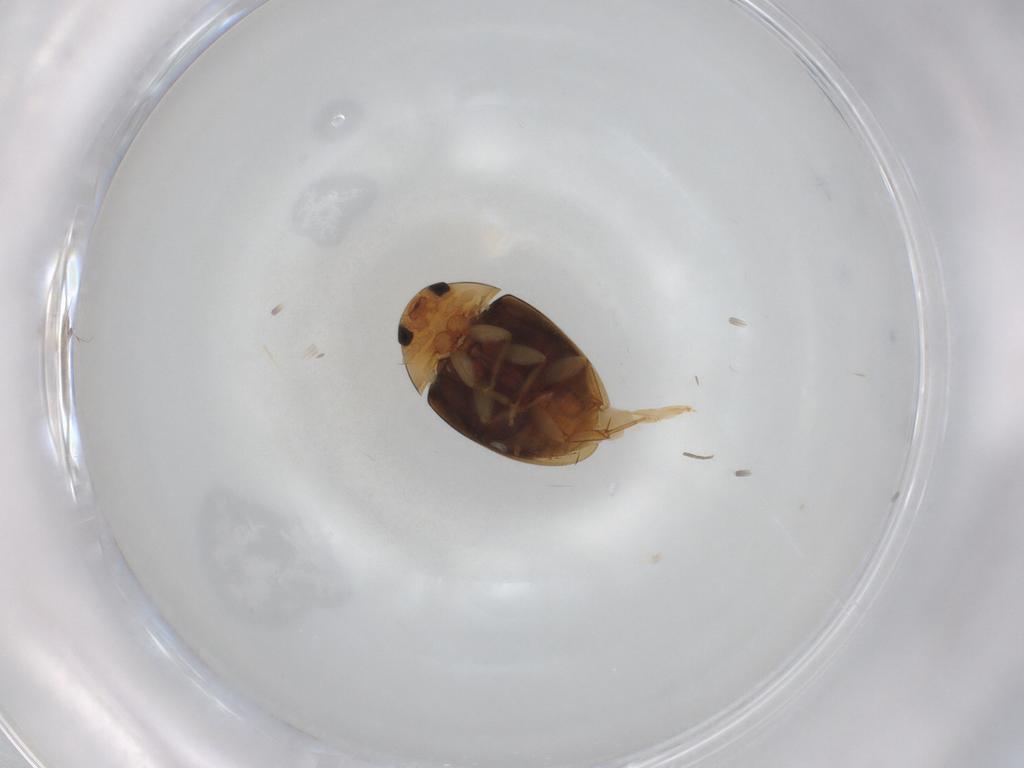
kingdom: Animalia
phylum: Arthropoda
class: Insecta
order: Coleoptera
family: Phalacridae
